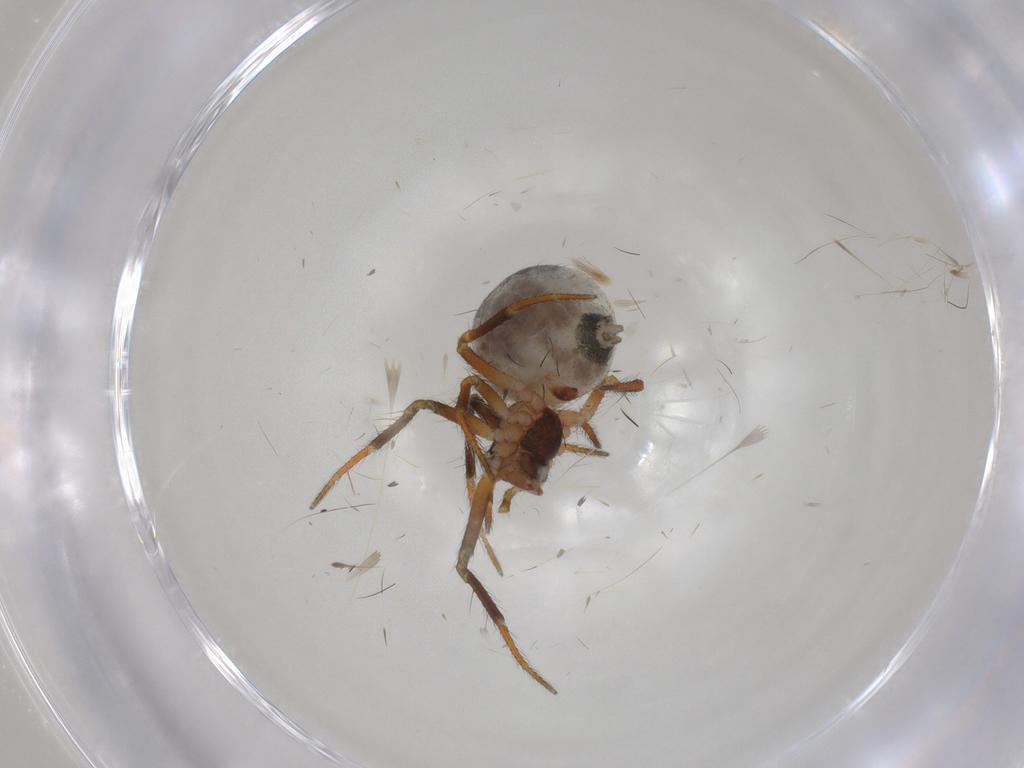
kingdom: Animalia
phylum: Arthropoda
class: Arachnida
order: Araneae
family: Theridiidae
